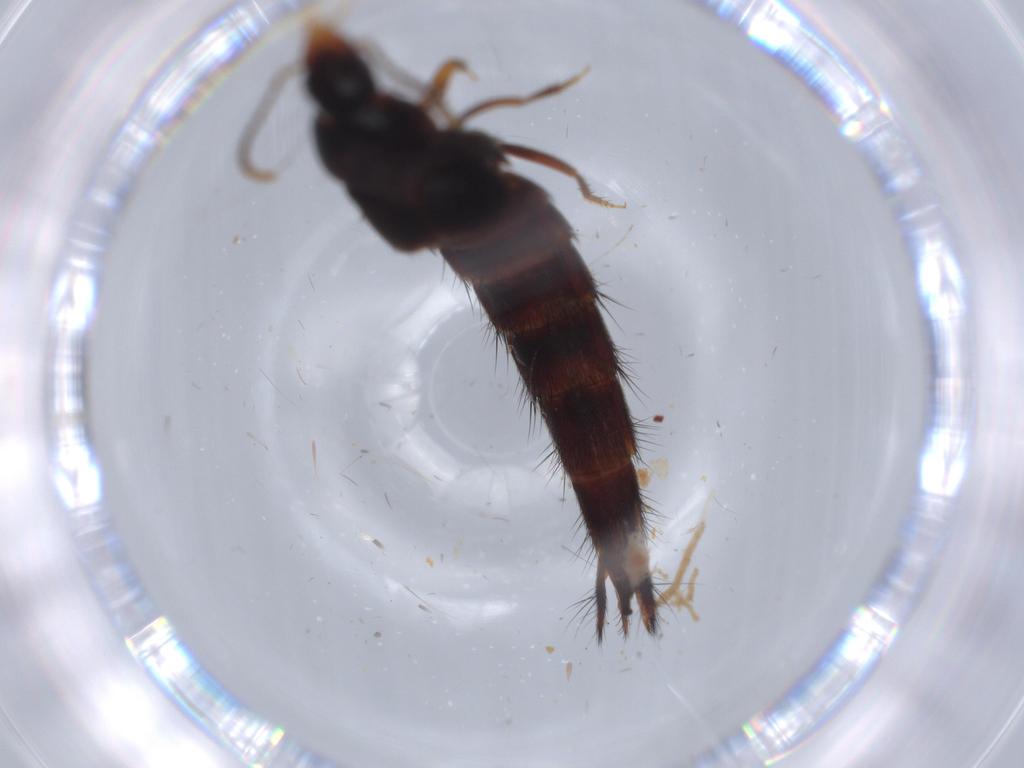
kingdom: Animalia
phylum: Arthropoda
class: Insecta
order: Coleoptera
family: Staphylinidae
